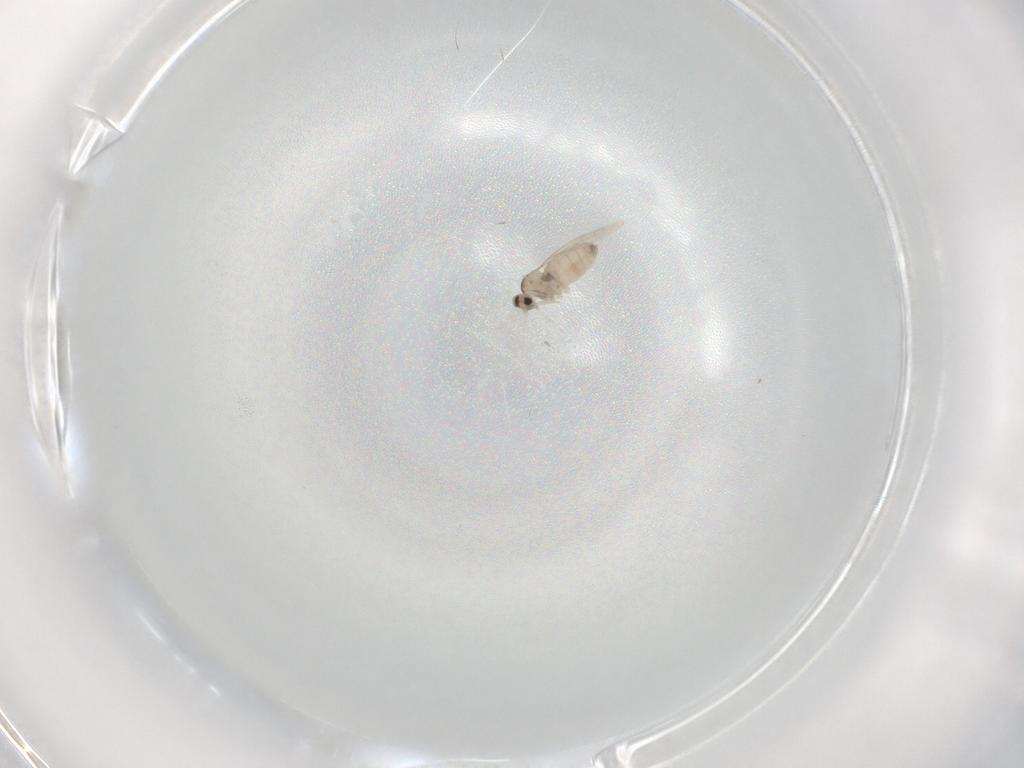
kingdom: Animalia
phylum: Arthropoda
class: Insecta
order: Diptera
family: Cecidomyiidae
